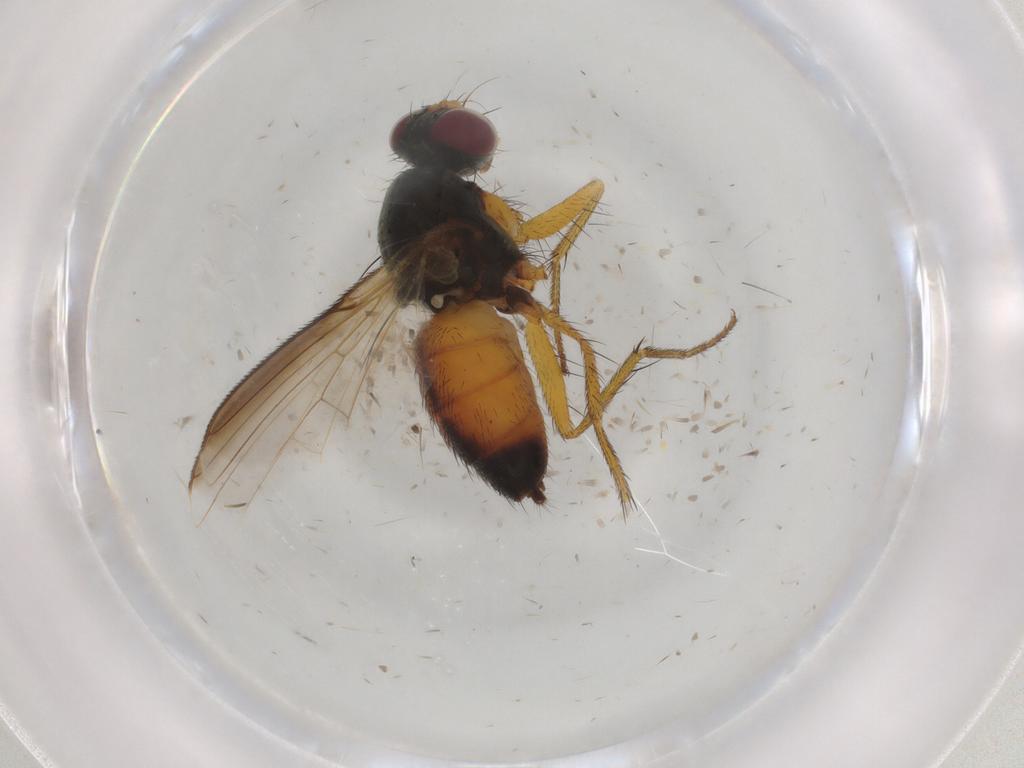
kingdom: Animalia
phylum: Arthropoda
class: Insecta
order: Diptera
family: Muscidae
